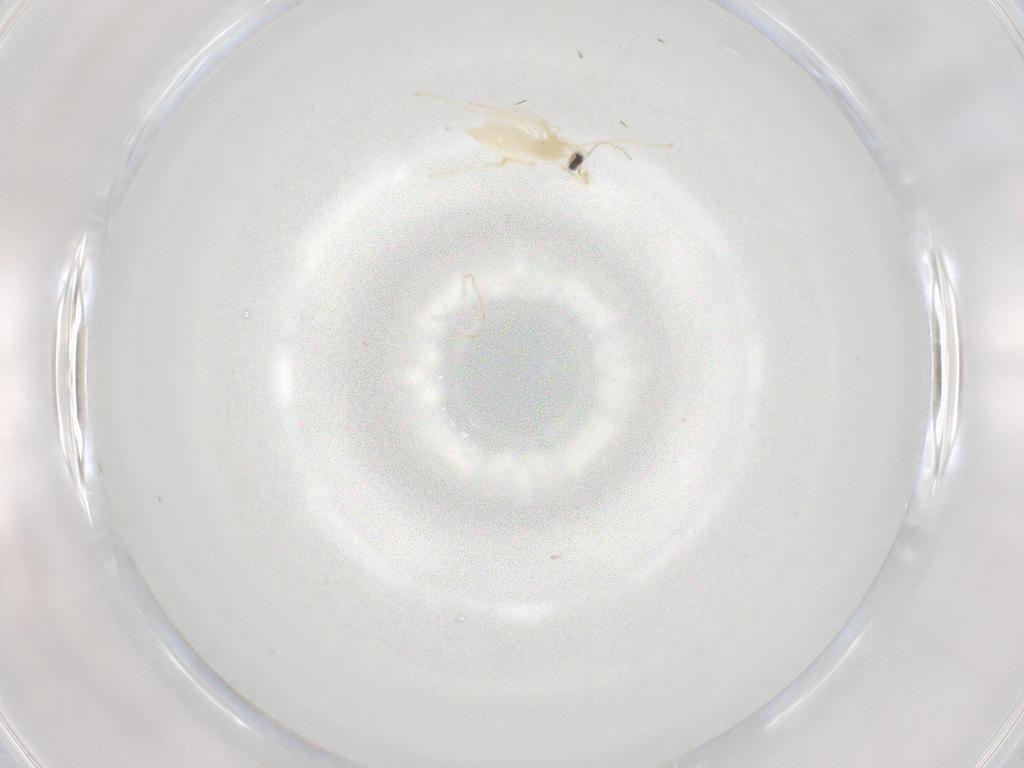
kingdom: Animalia
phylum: Arthropoda
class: Insecta
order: Diptera
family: Cecidomyiidae
